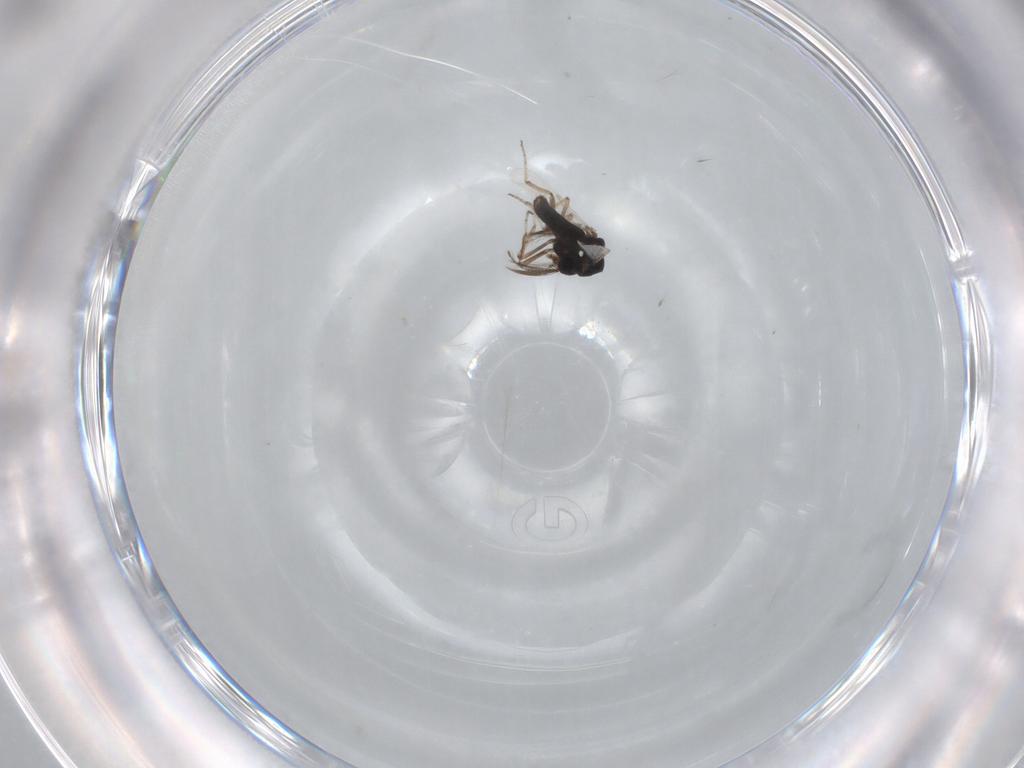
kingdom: Animalia
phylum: Arthropoda
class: Insecta
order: Diptera
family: Ceratopogonidae
